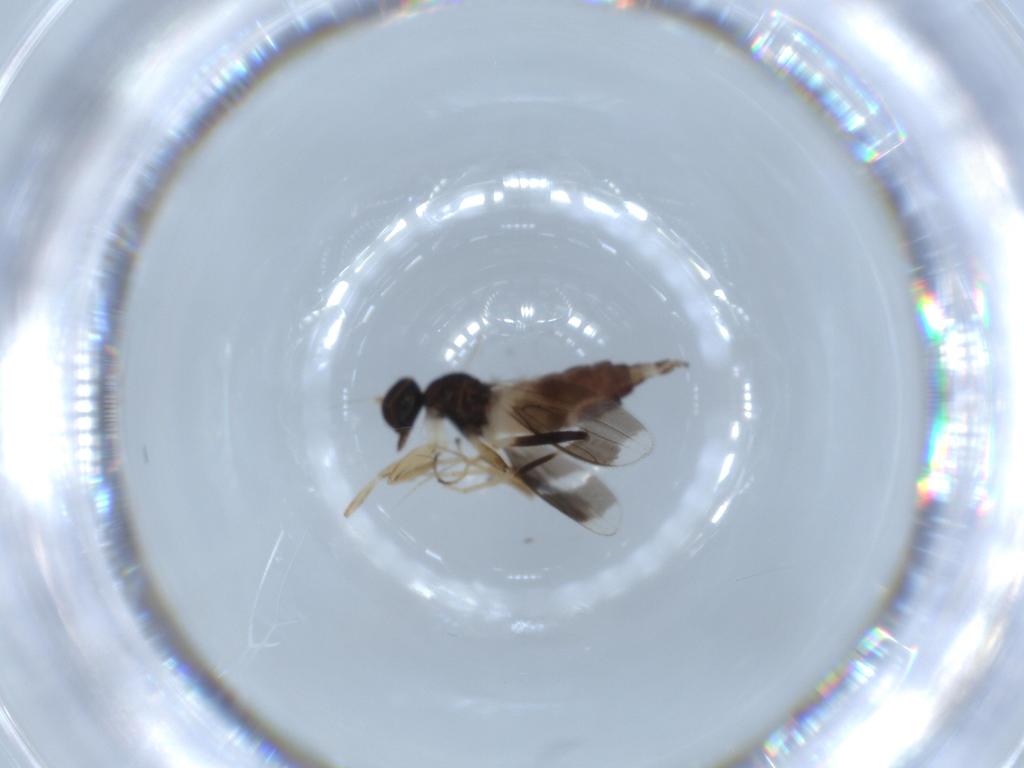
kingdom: Animalia
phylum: Arthropoda
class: Insecta
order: Diptera
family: Hybotidae
